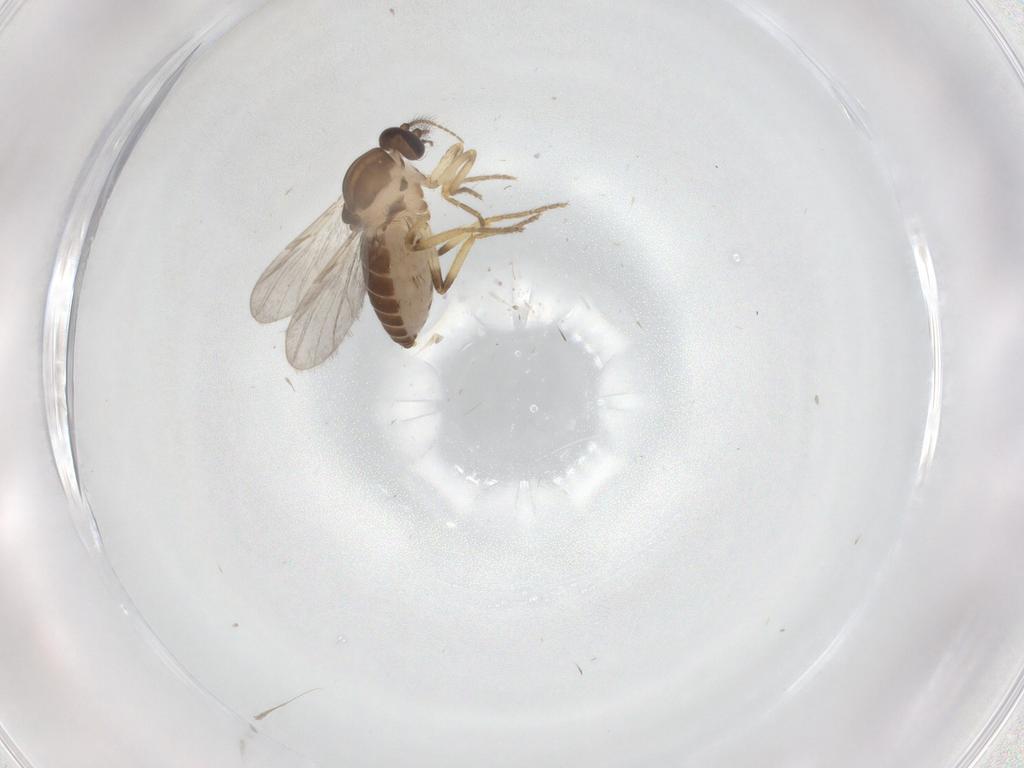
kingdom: Animalia
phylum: Arthropoda
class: Insecta
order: Diptera
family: Ceratopogonidae
